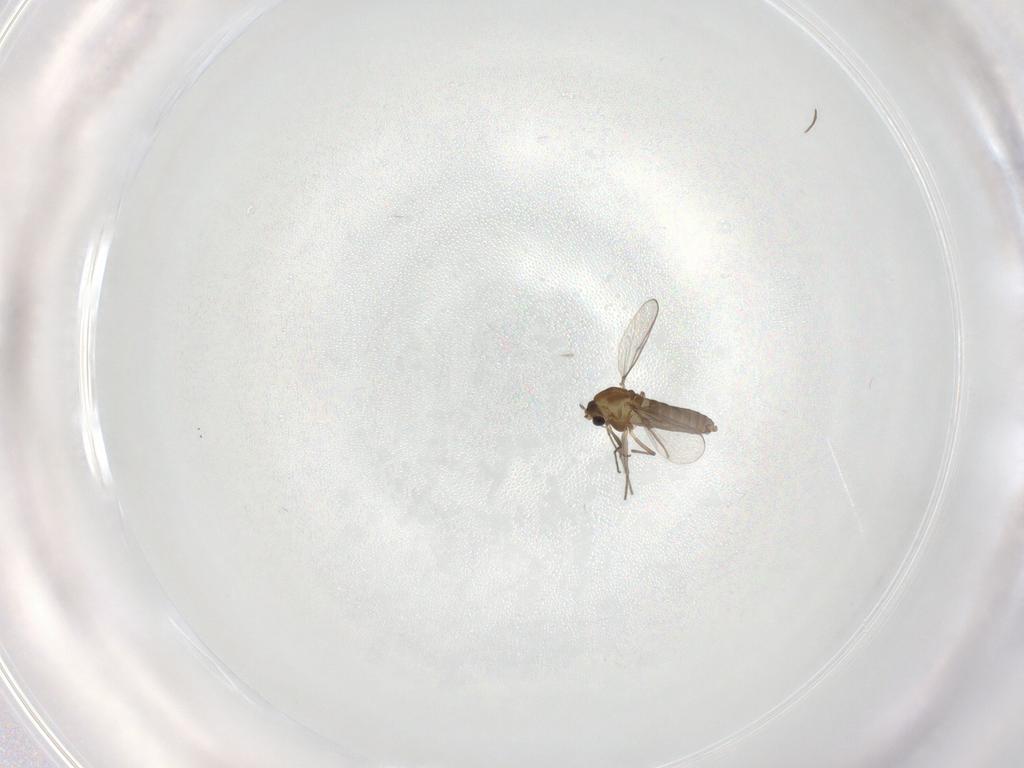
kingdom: Animalia
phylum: Arthropoda
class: Insecta
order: Diptera
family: Chironomidae
